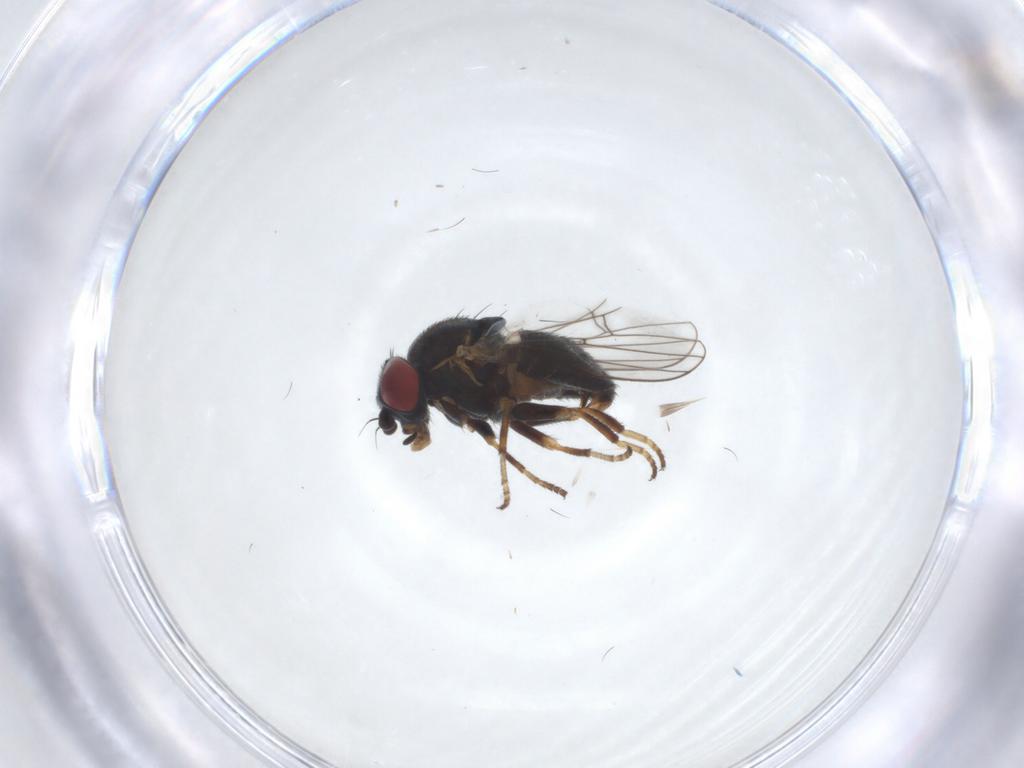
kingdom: Animalia
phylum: Arthropoda
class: Insecta
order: Diptera
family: Chamaemyiidae
